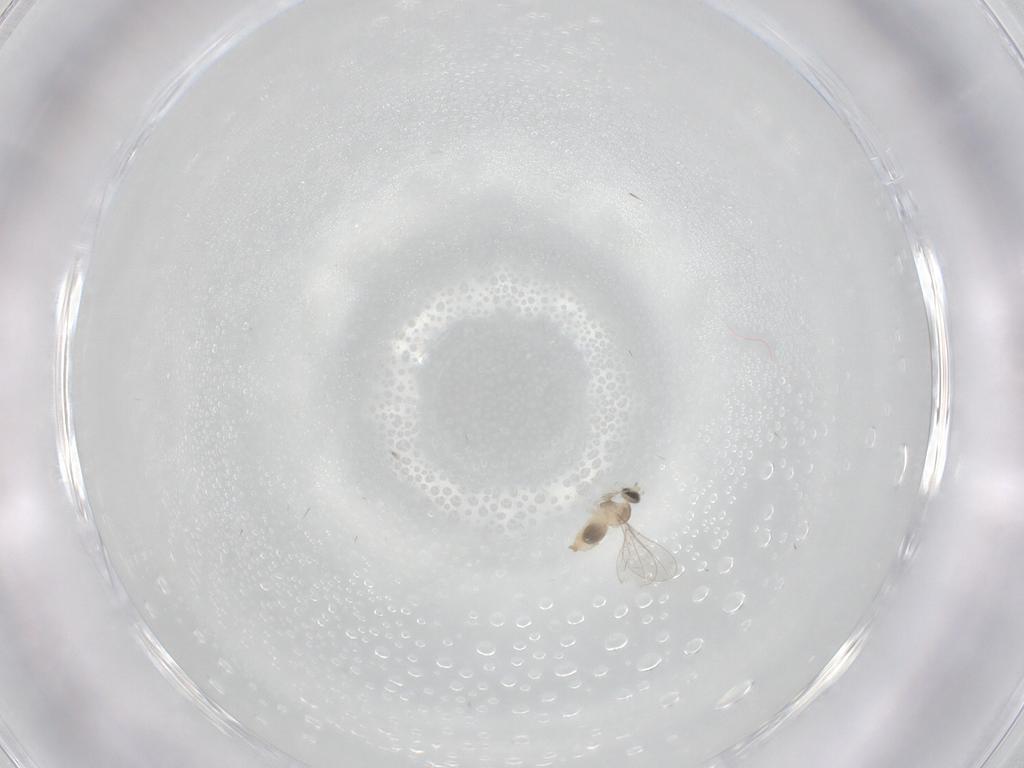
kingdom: Animalia
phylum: Arthropoda
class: Insecta
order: Diptera
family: Cecidomyiidae
